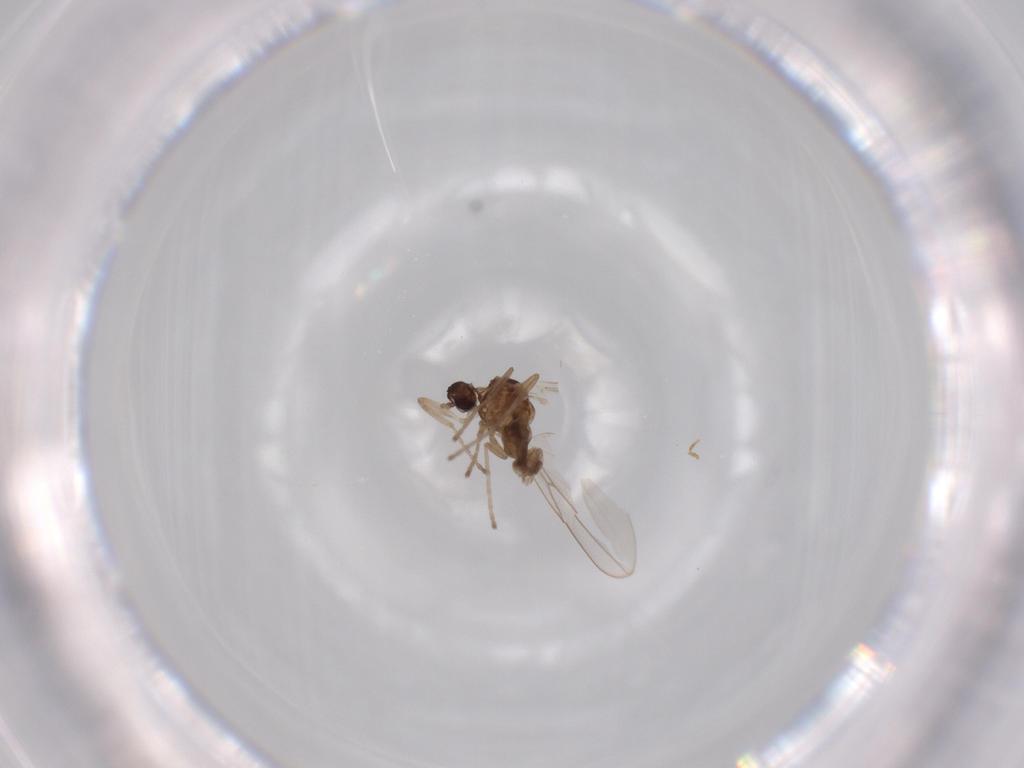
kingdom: Animalia
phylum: Arthropoda
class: Insecta
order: Diptera
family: Cecidomyiidae
